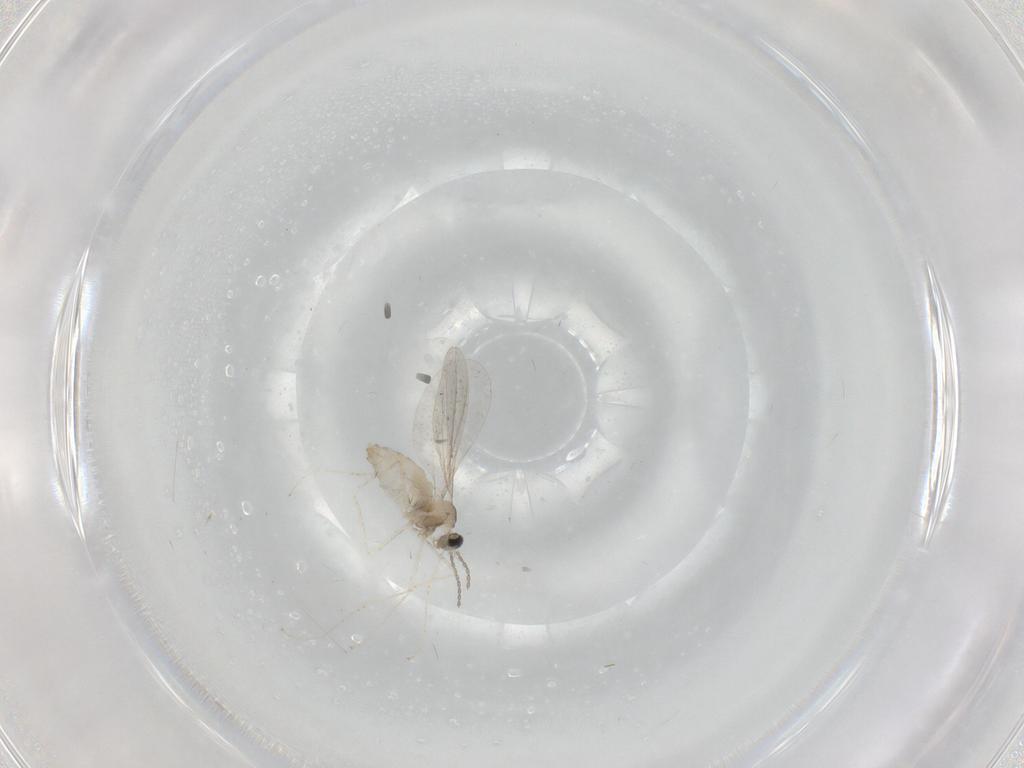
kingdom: Animalia
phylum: Arthropoda
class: Insecta
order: Diptera
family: Cecidomyiidae
